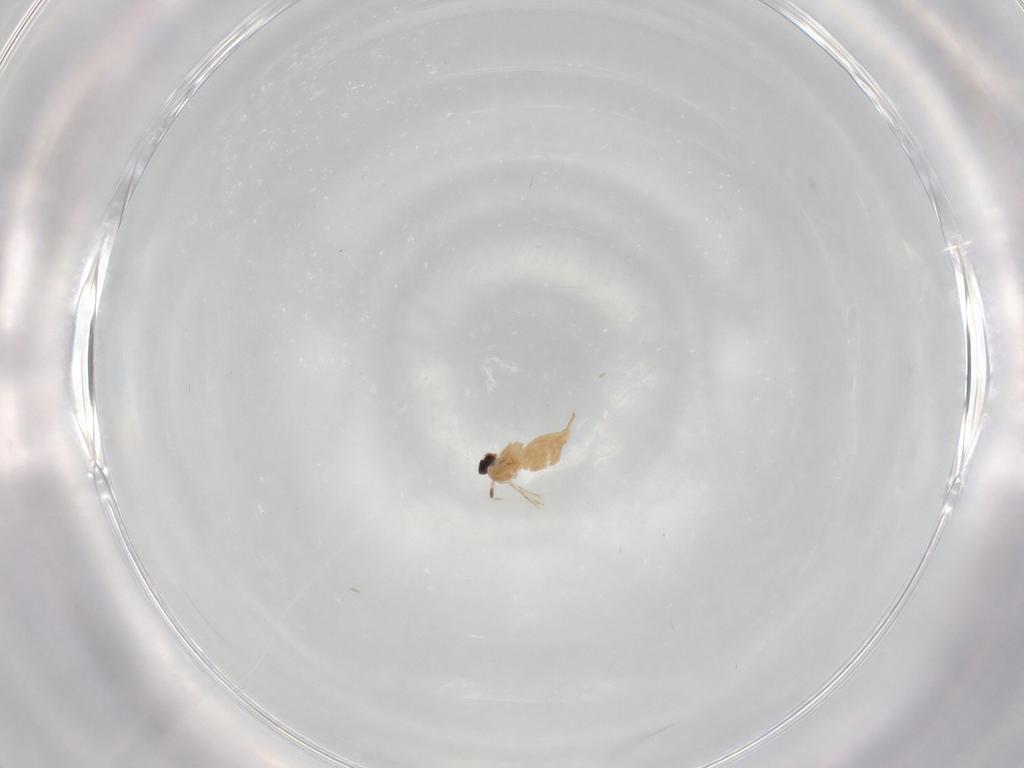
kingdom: Animalia
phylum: Arthropoda
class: Insecta
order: Diptera
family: Cecidomyiidae
